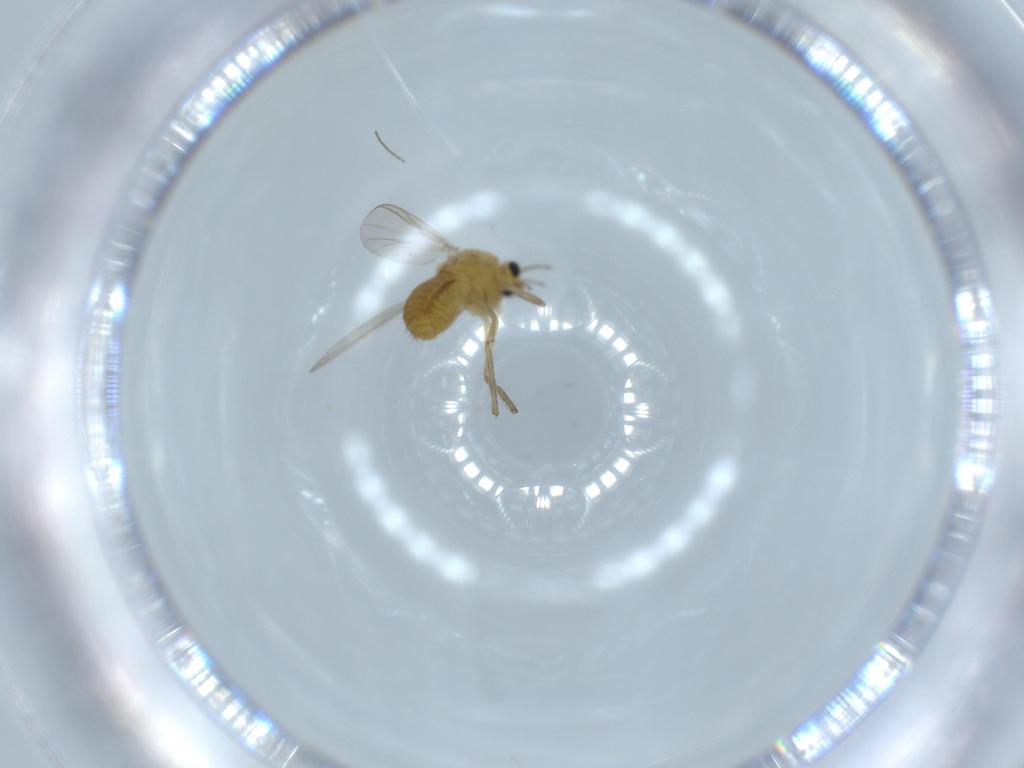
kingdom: Animalia
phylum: Arthropoda
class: Insecta
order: Diptera
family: Chironomidae
